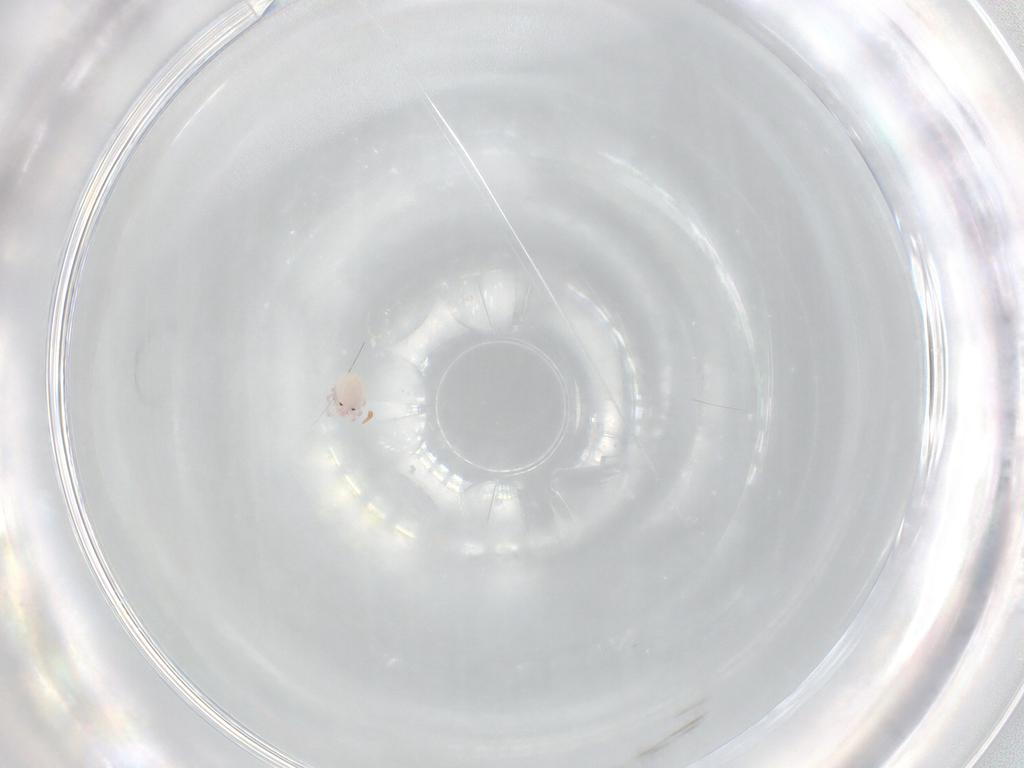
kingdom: Animalia
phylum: Arthropoda
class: Arachnida
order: Trombidiformes
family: Lebertiidae
